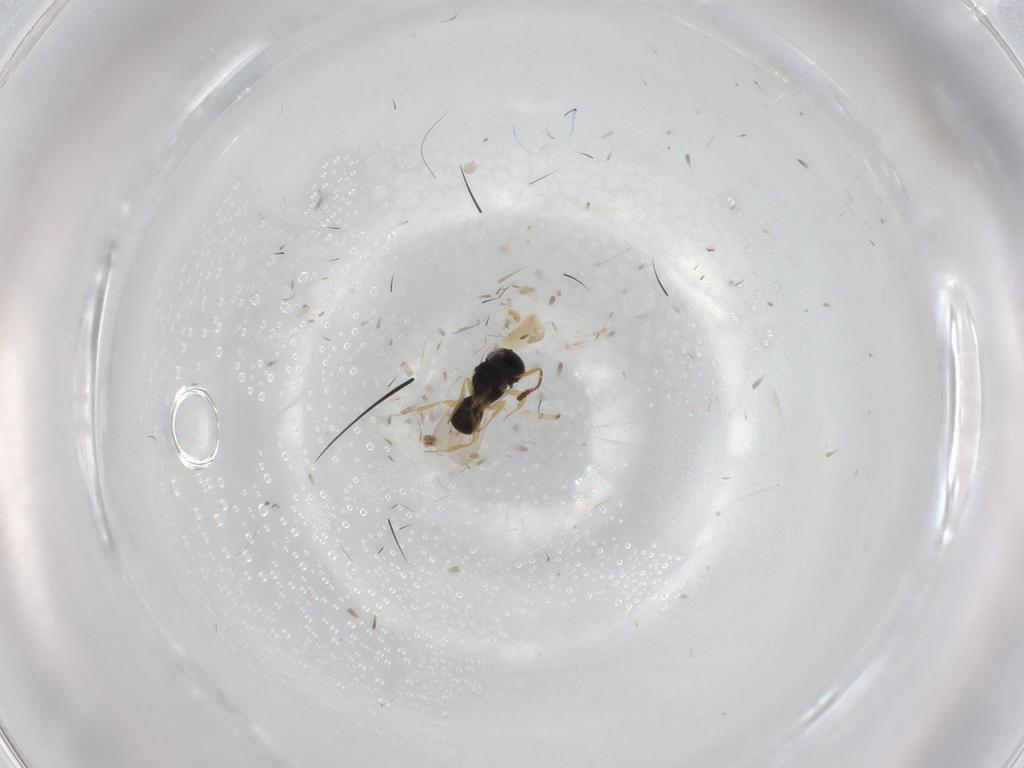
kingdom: Animalia
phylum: Arthropoda
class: Insecta
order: Hymenoptera
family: Scelionidae
